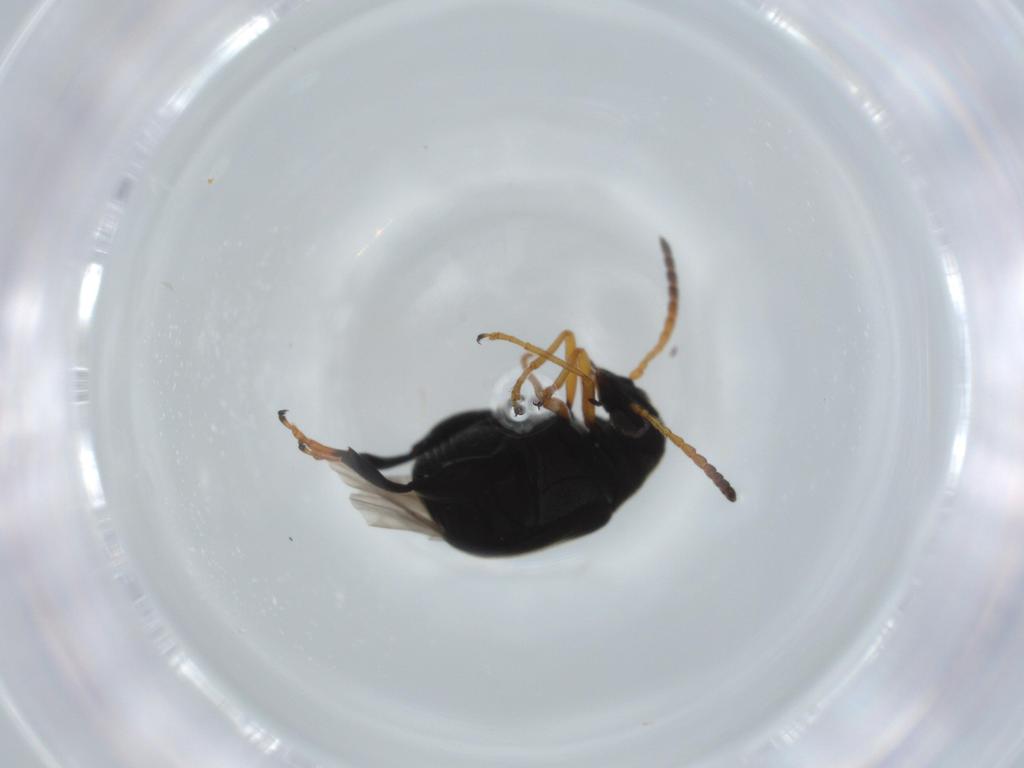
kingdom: Animalia
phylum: Arthropoda
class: Insecta
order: Coleoptera
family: Chrysomelidae
